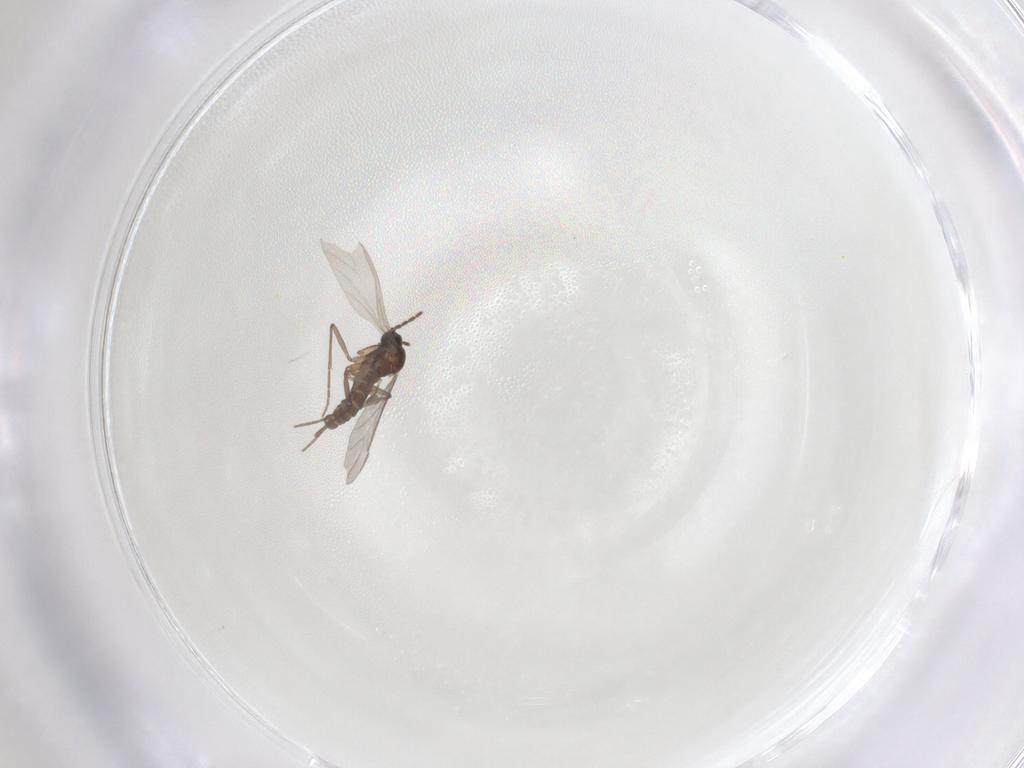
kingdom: Animalia
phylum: Arthropoda
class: Insecta
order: Diptera
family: Sciaridae
